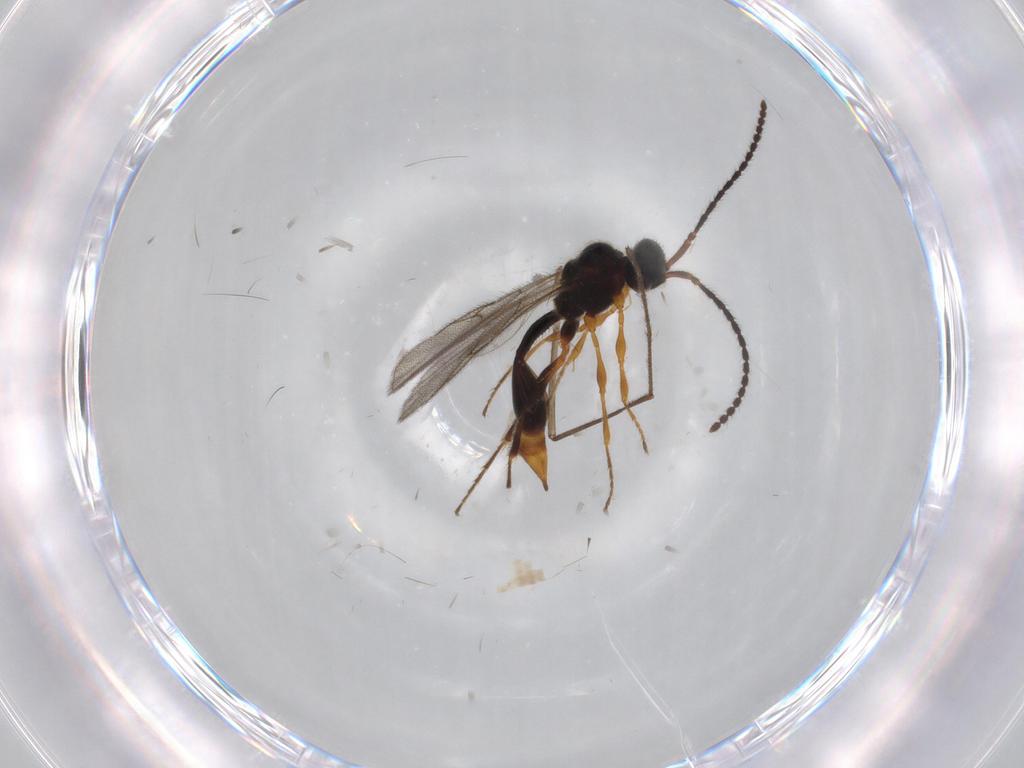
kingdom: Animalia
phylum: Arthropoda
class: Insecta
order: Hymenoptera
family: Diapriidae
